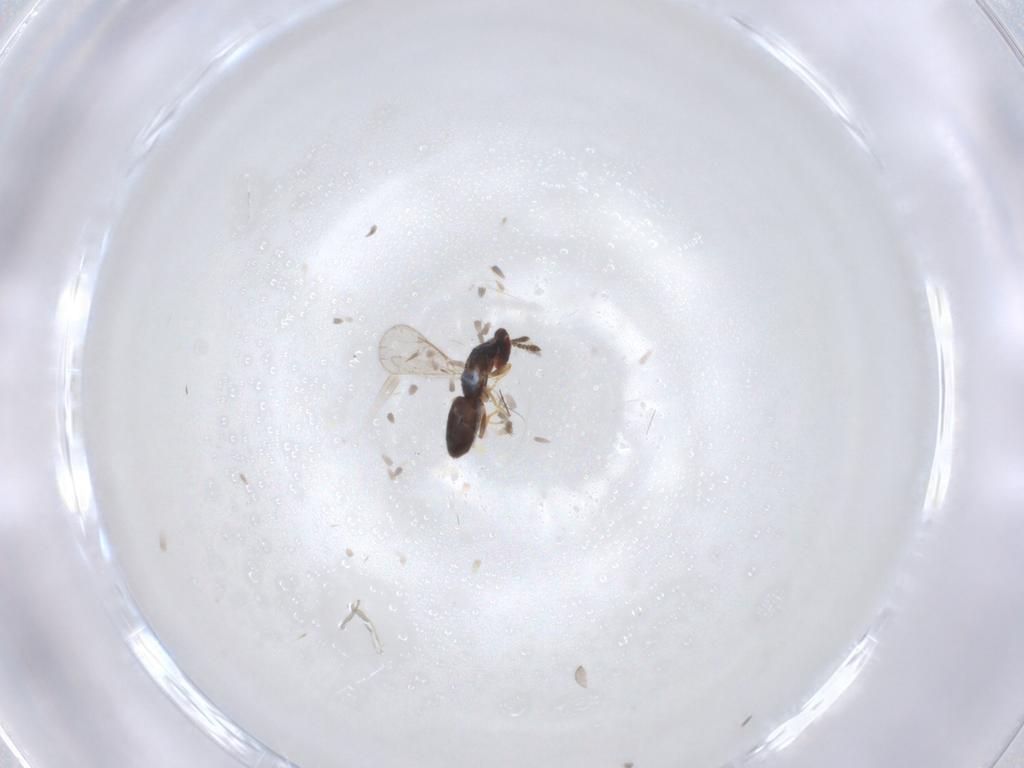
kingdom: Animalia
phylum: Arthropoda
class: Insecta
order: Hymenoptera
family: Eulophidae
